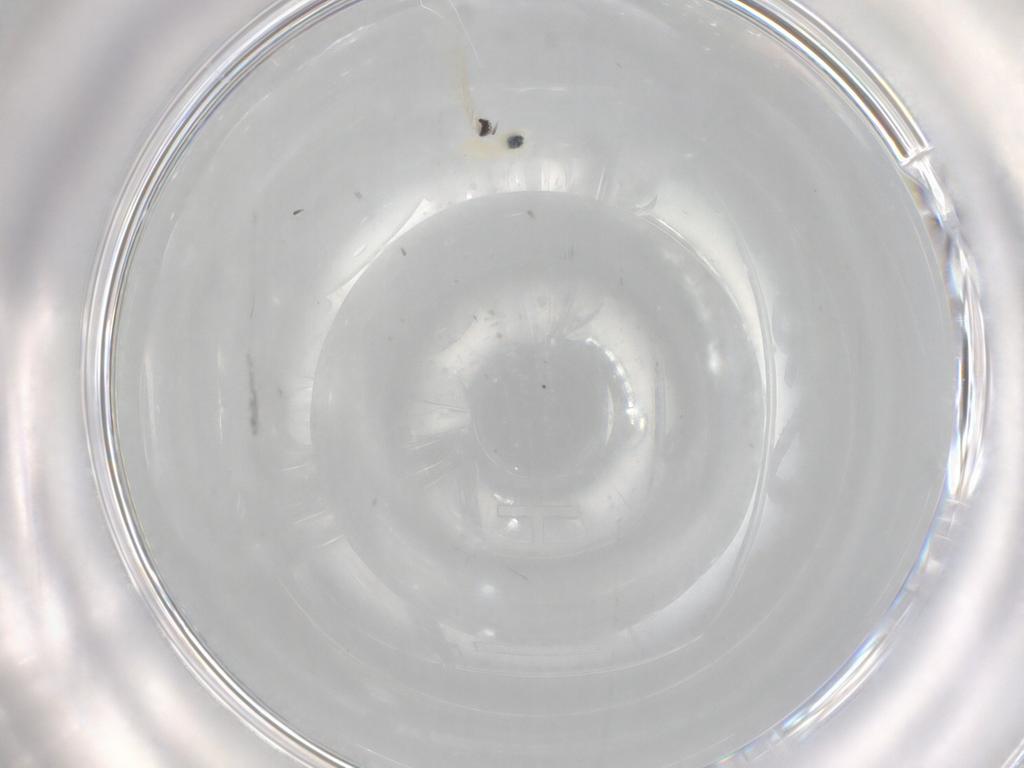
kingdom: Animalia
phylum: Arthropoda
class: Insecta
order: Diptera
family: Cecidomyiidae
